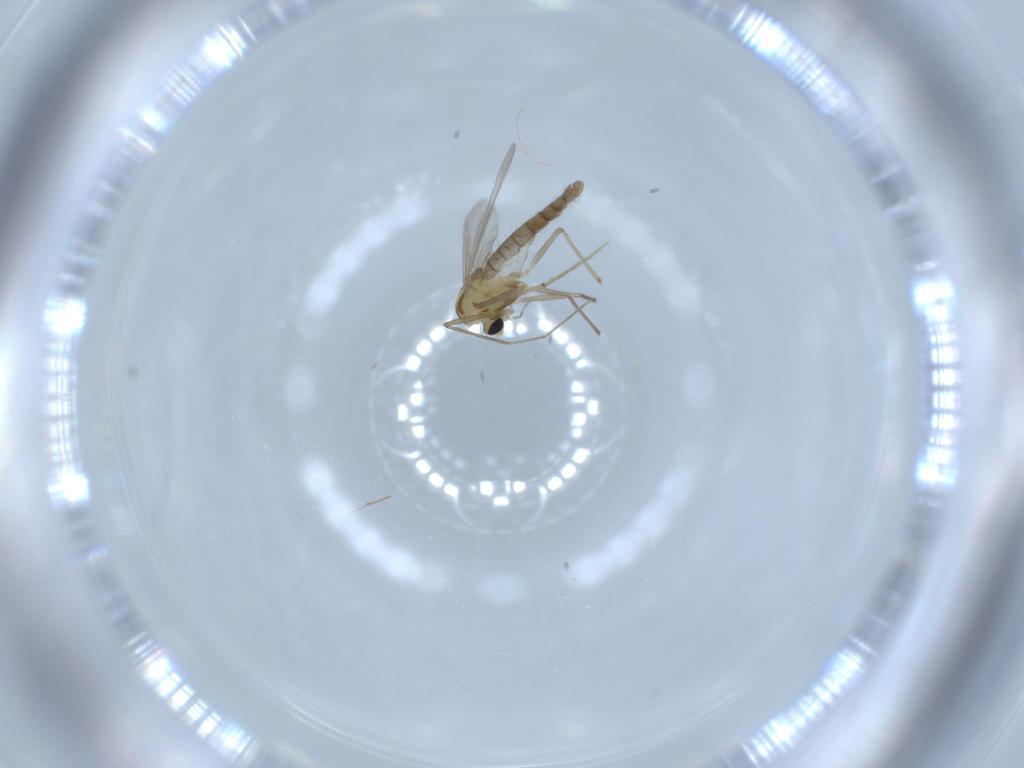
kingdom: Animalia
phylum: Arthropoda
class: Insecta
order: Diptera
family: Chironomidae
